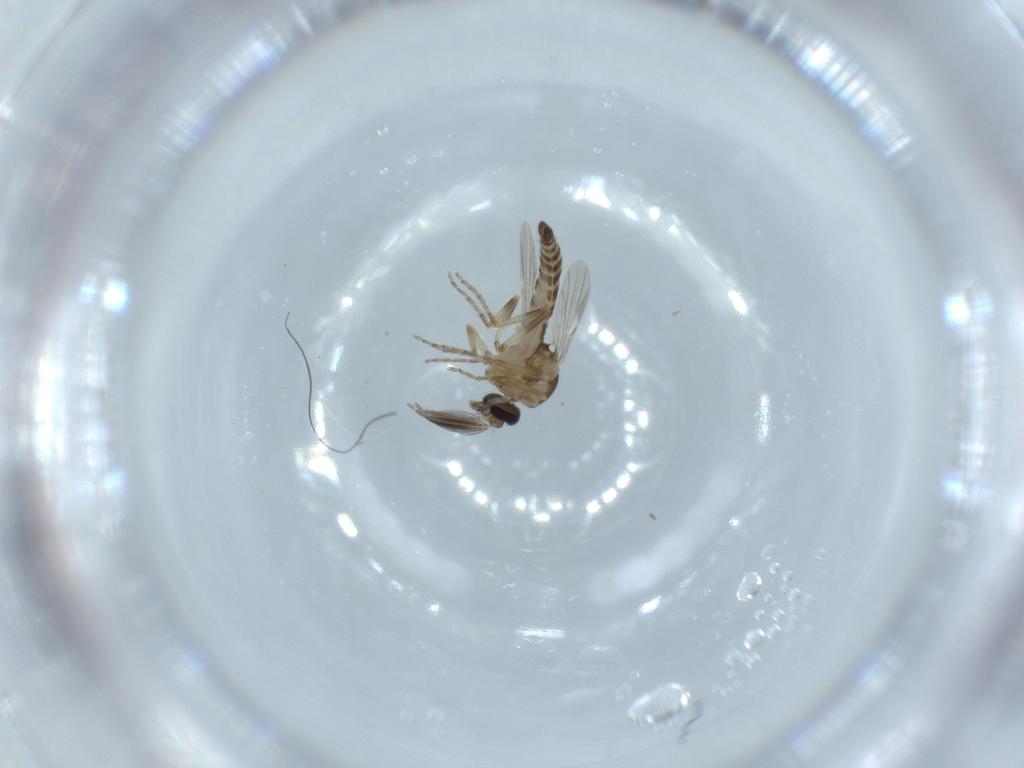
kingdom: Animalia
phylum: Arthropoda
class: Insecta
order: Diptera
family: Ceratopogonidae
